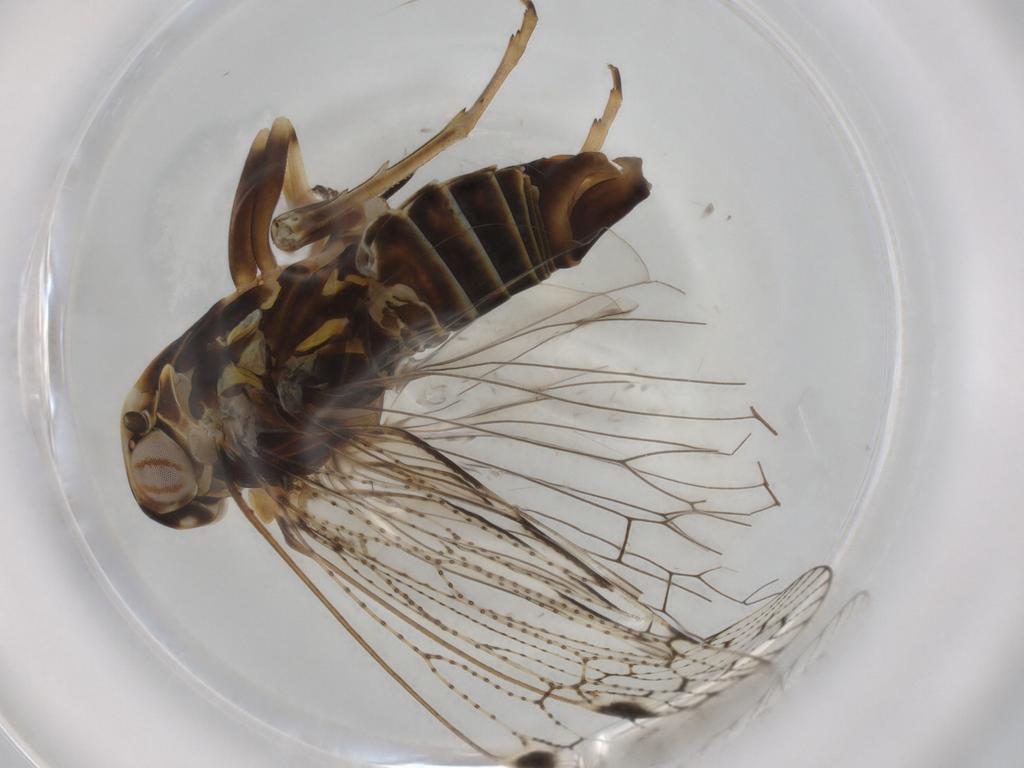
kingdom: Animalia
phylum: Arthropoda
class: Insecta
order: Hemiptera
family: Cixiidae
